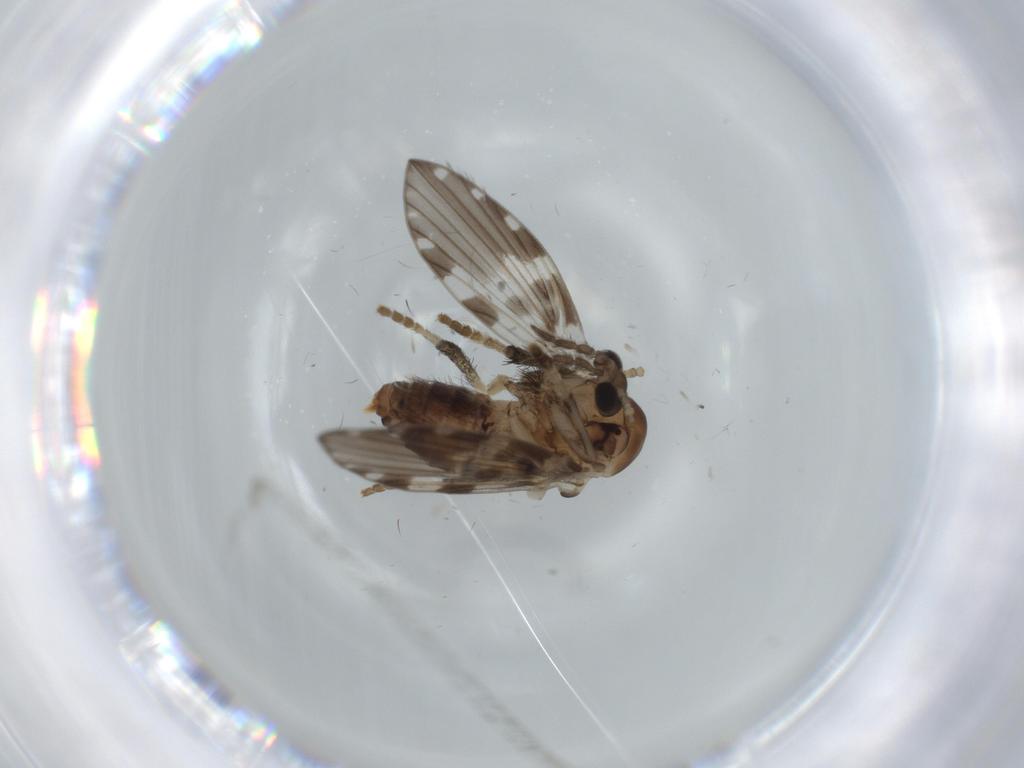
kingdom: Animalia
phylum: Arthropoda
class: Insecta
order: Diptera
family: Psychodidae
